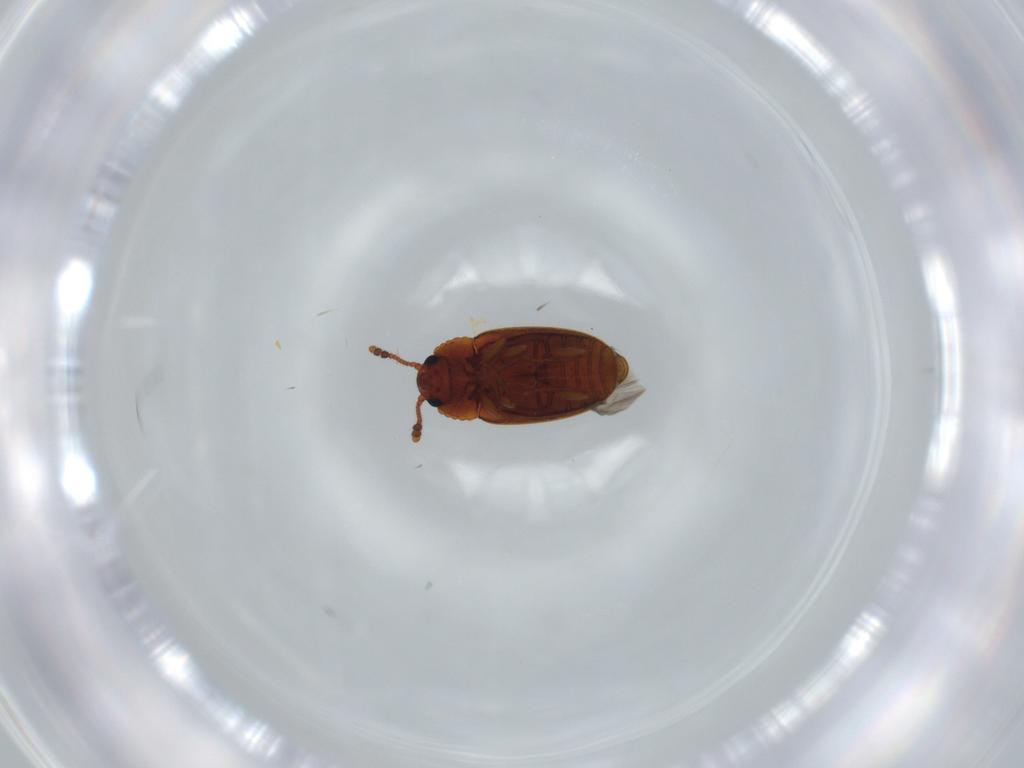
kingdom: Animalia
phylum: Arthropoda
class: Insecta
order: Coleoptera
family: Erotylidae
